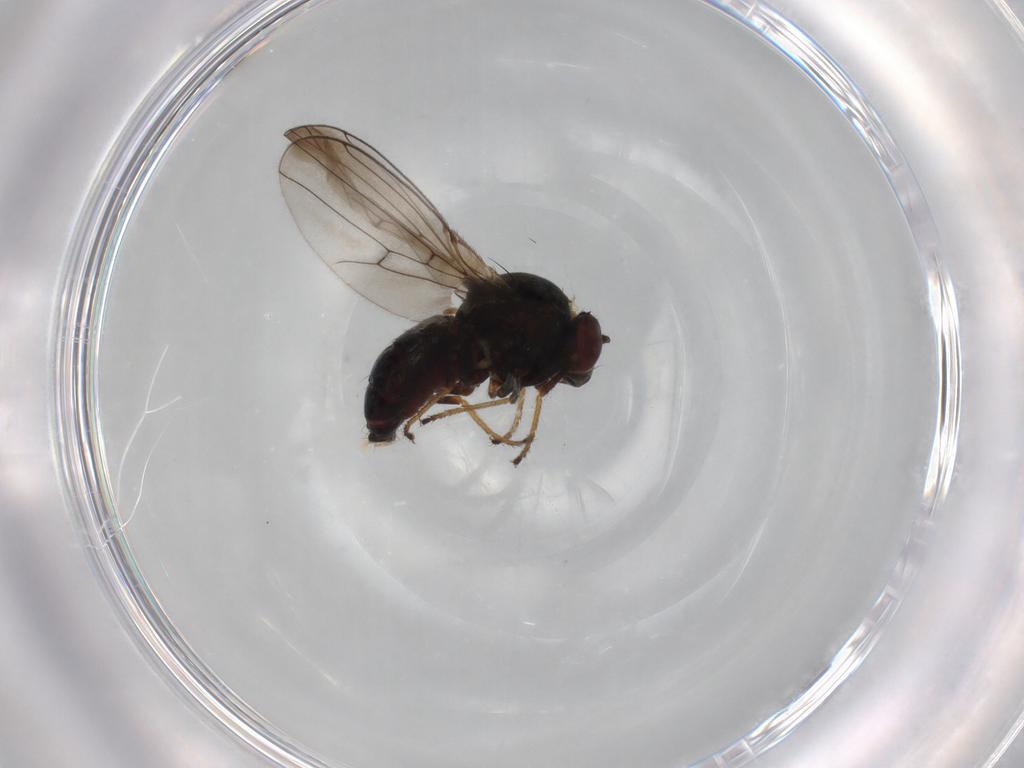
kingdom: Animalia
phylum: Arthropoda
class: Insecta
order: Diptera
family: Ephydridae
